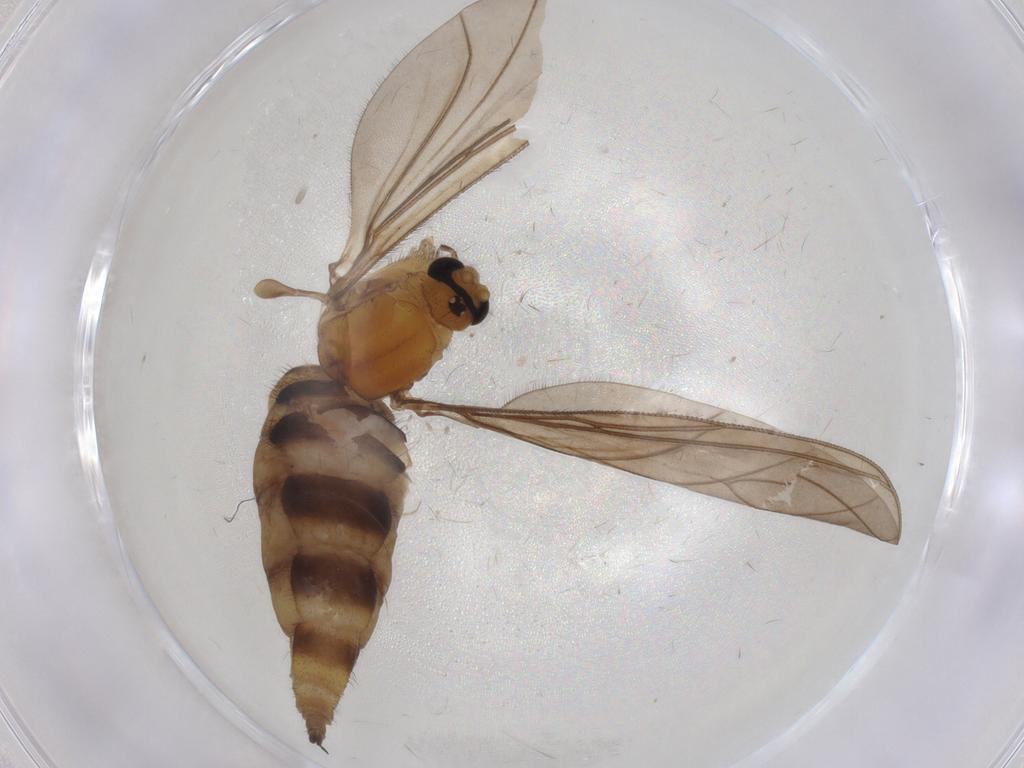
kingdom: Animalia
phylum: Arthropoda
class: Insecta
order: Diptera
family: Sciaridae
